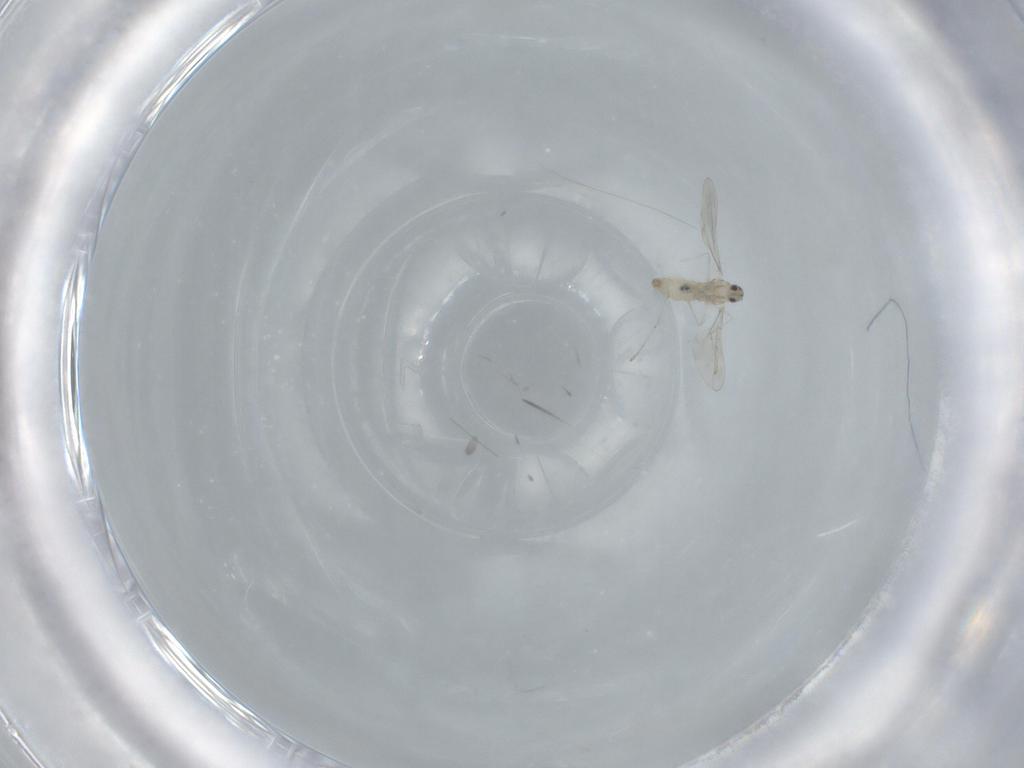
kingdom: Animalia
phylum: Arthropoda
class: Insecta
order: Diptera
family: Cecidomyiidae
